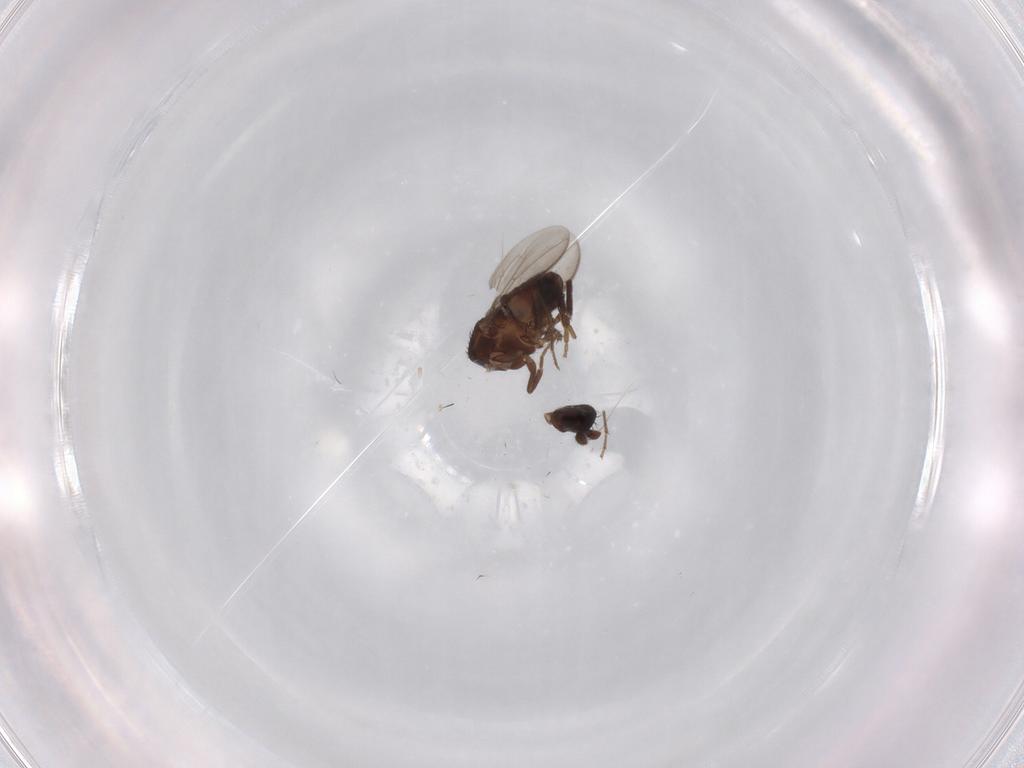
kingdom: Animalia
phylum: Arthropoda
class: Insecta
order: Diptera
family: Sphaeroceridae
